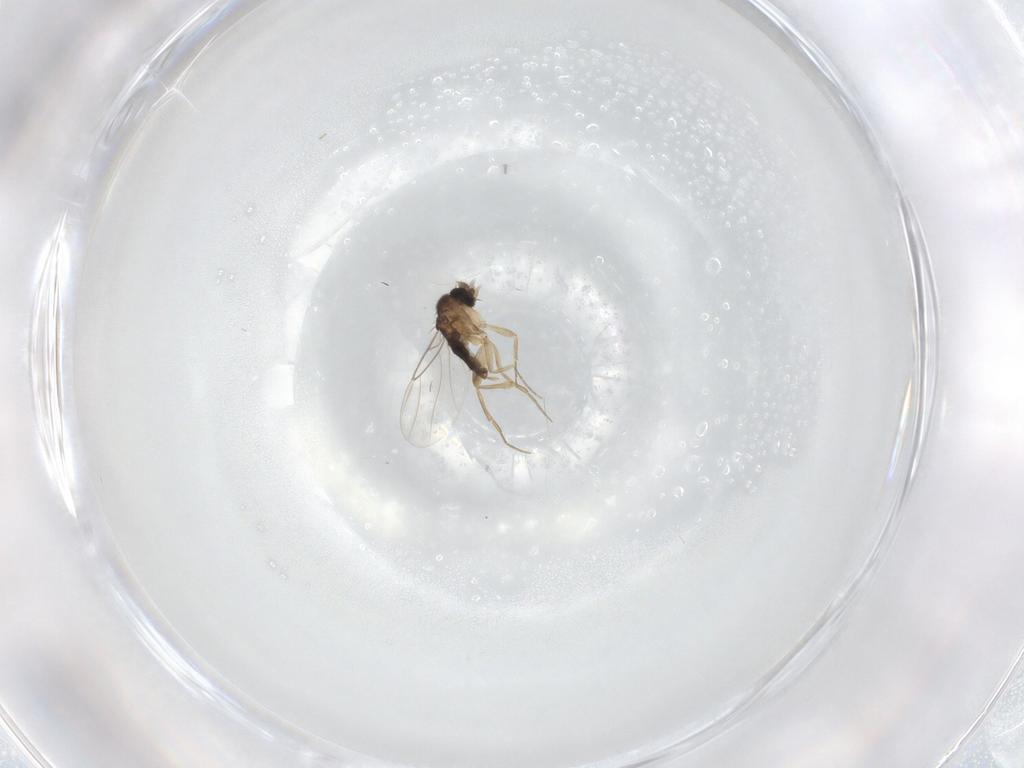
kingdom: Animalia
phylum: Arthropoda
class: Insecta
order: Diptera
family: Phoridae
